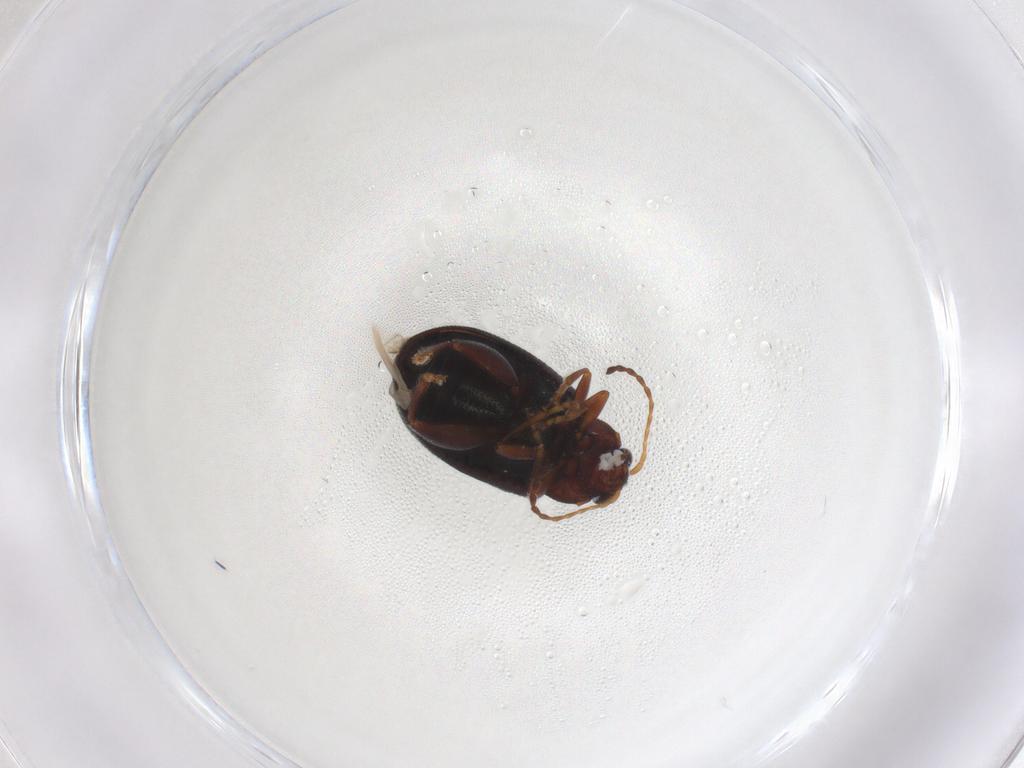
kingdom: Animalia
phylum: Arthropoda
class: Insecta
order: Coleoptera
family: Chrysomelidae
